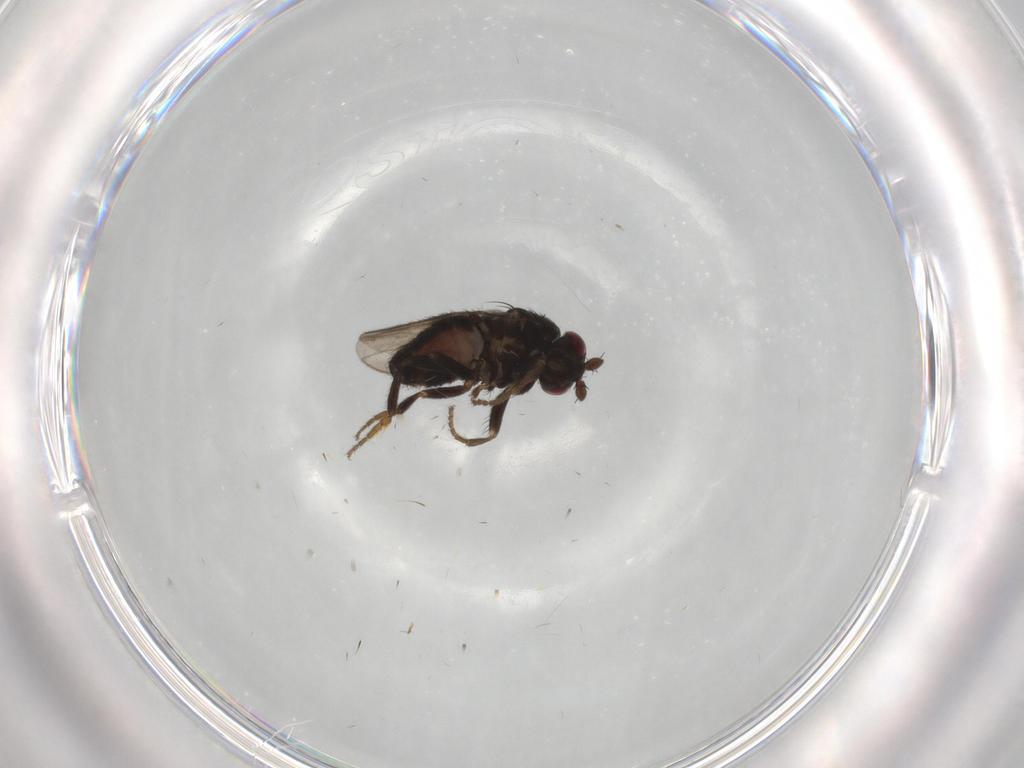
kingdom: Animalia
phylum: Arthropoda
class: Insecta
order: Diptera
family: Sphaeroceridae
